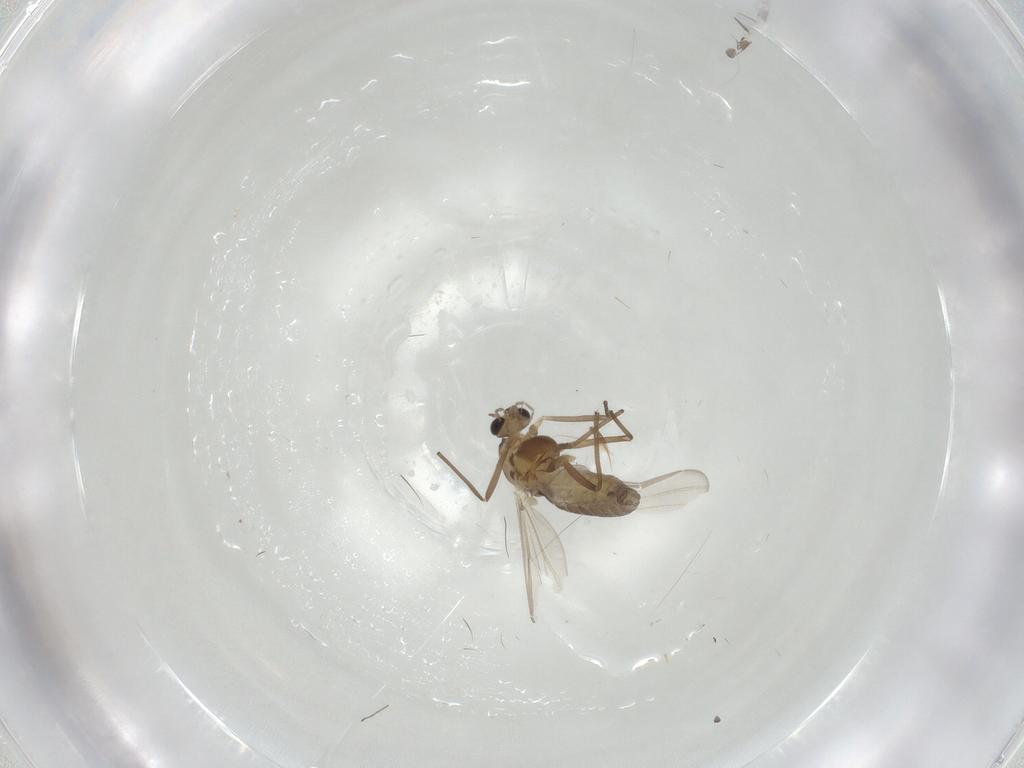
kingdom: Animalia
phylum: Arthropoda
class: Insecta
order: Diptera
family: Chironomidae
